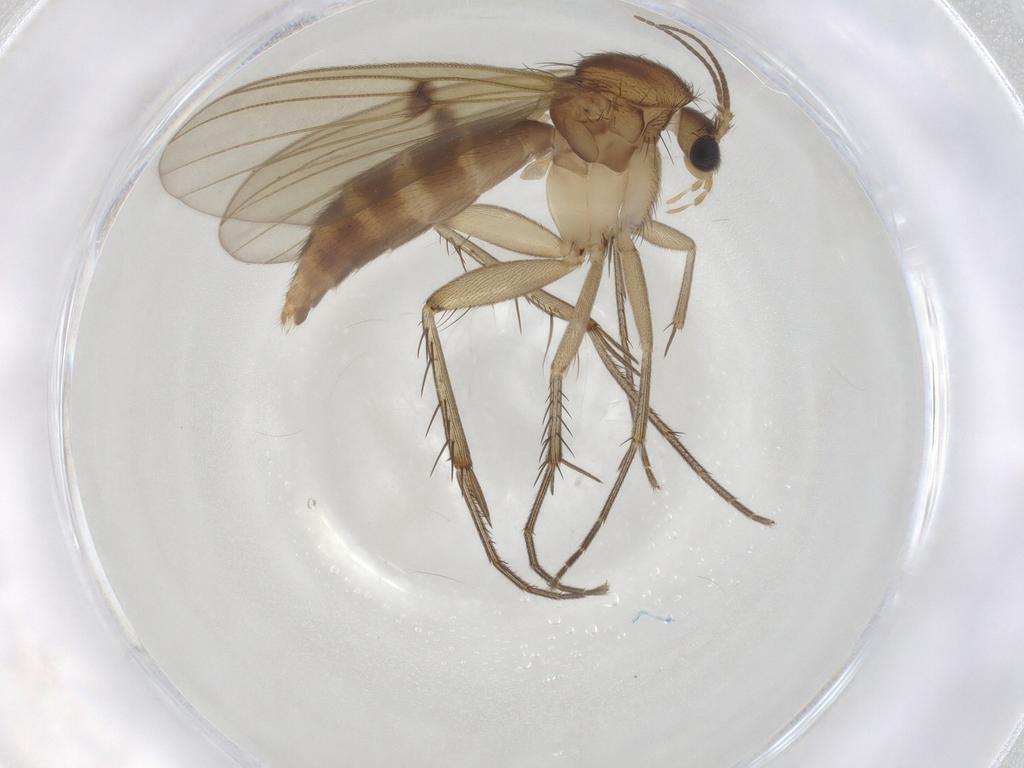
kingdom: Animalia
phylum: Arthropoda
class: Insecta
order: Diptera
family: Mycetophilidae
